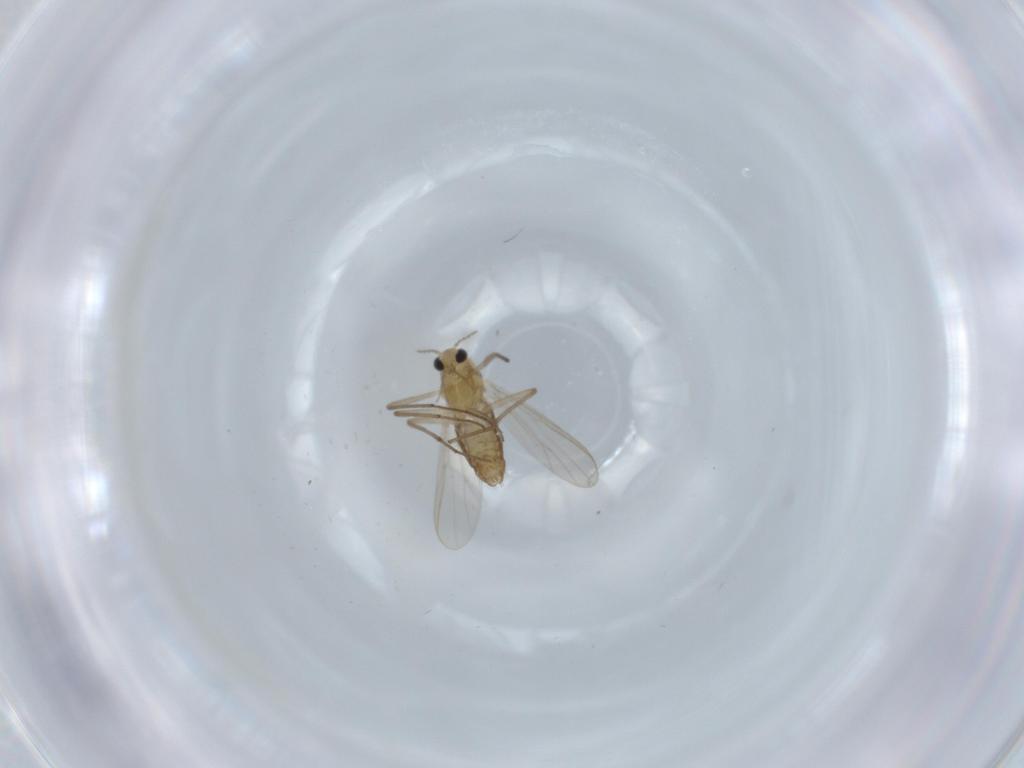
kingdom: Animalia
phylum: Arthropoda
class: Insecta
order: Diptera
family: Chironomidae
